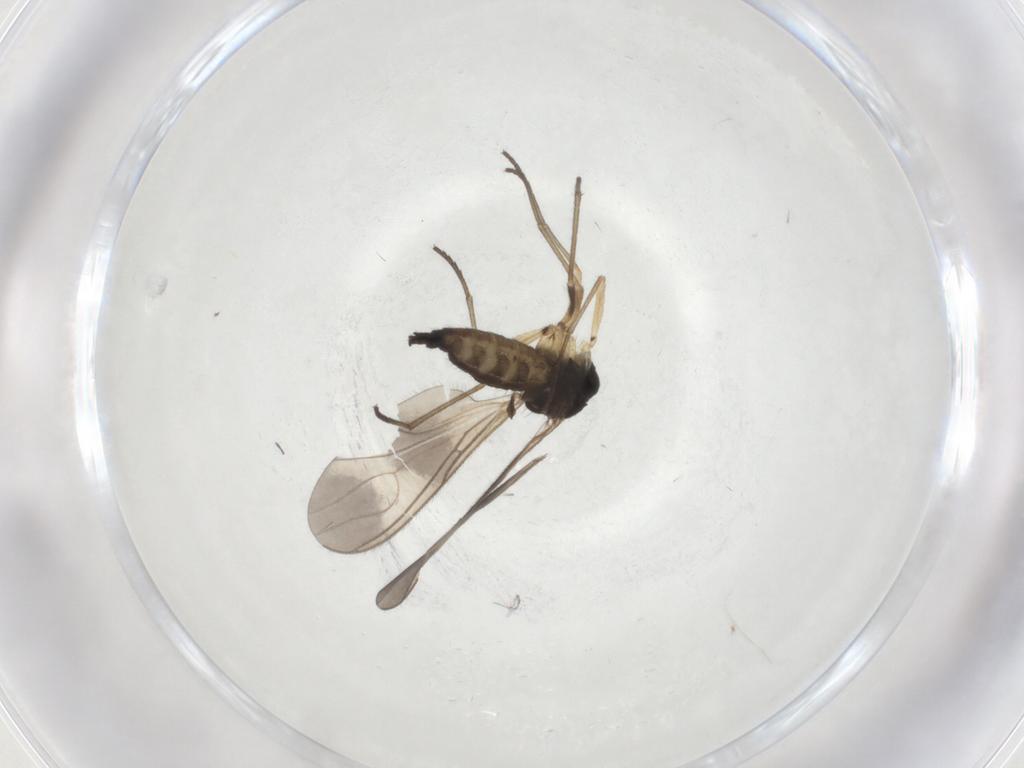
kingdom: Animalia
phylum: Arthropoda
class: Insecta
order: Diptera
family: Sciaridae
